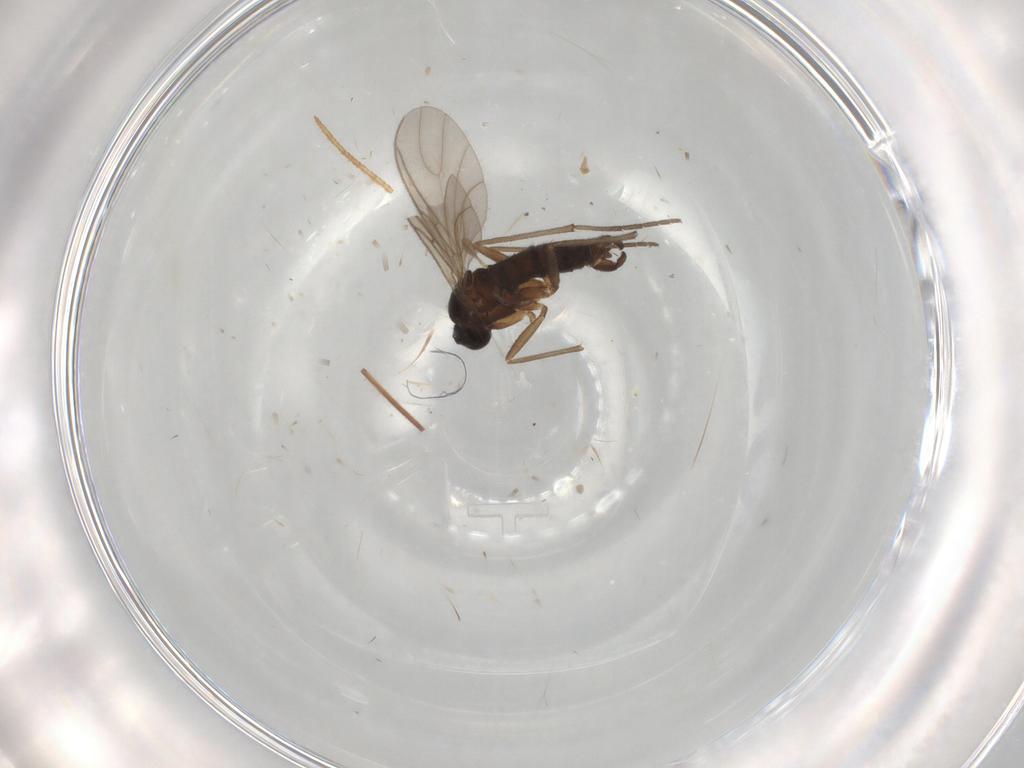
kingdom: Animalia
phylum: Arthropoda
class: Insecta
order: Diptera
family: Sciaridae
